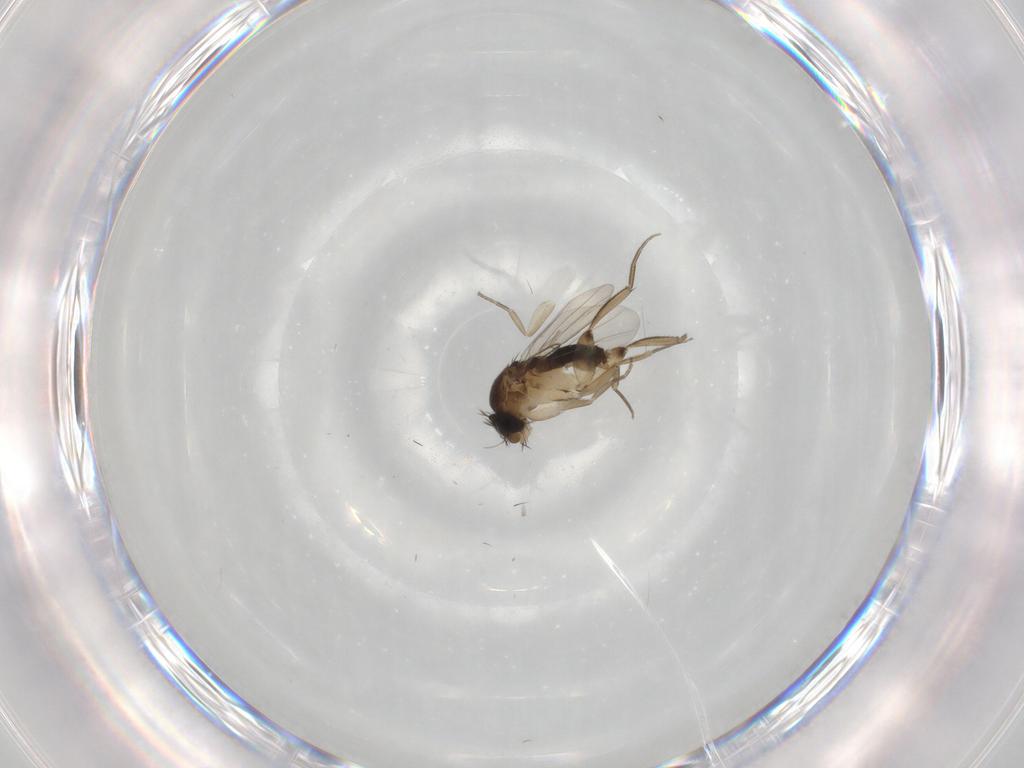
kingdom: Animalia
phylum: Arthropoda
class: Insecta
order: Diptera
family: Phoridae
